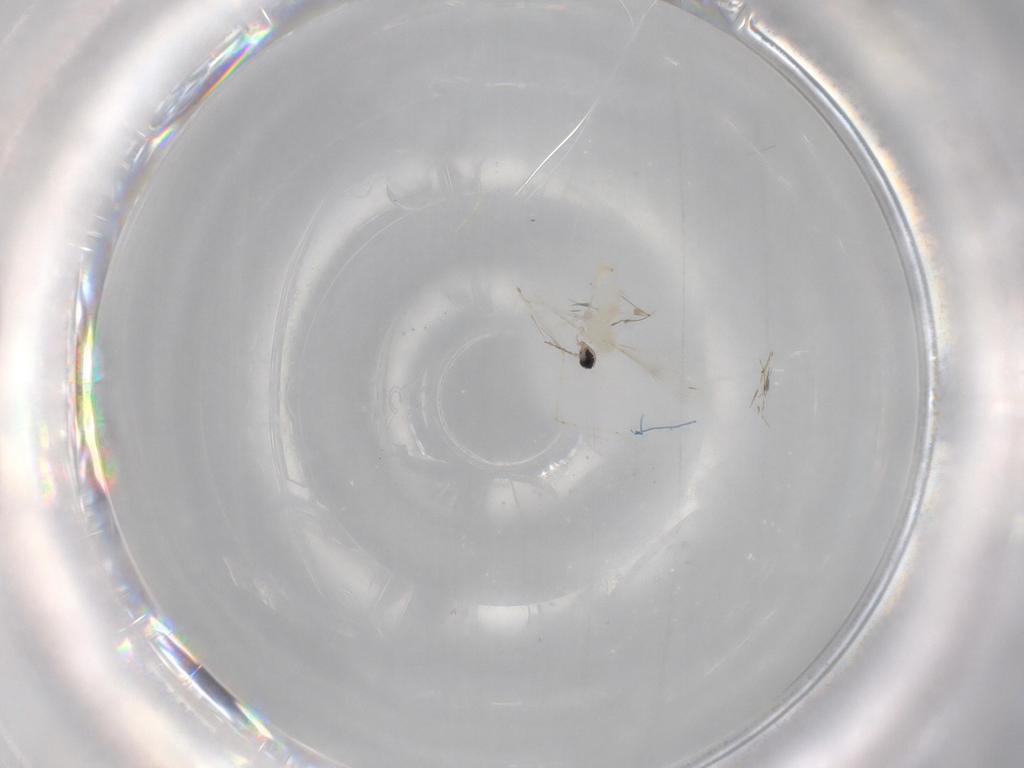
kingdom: Animalia
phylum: Arthropoda
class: Insecta
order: Diptera
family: Cecidomyiidae
